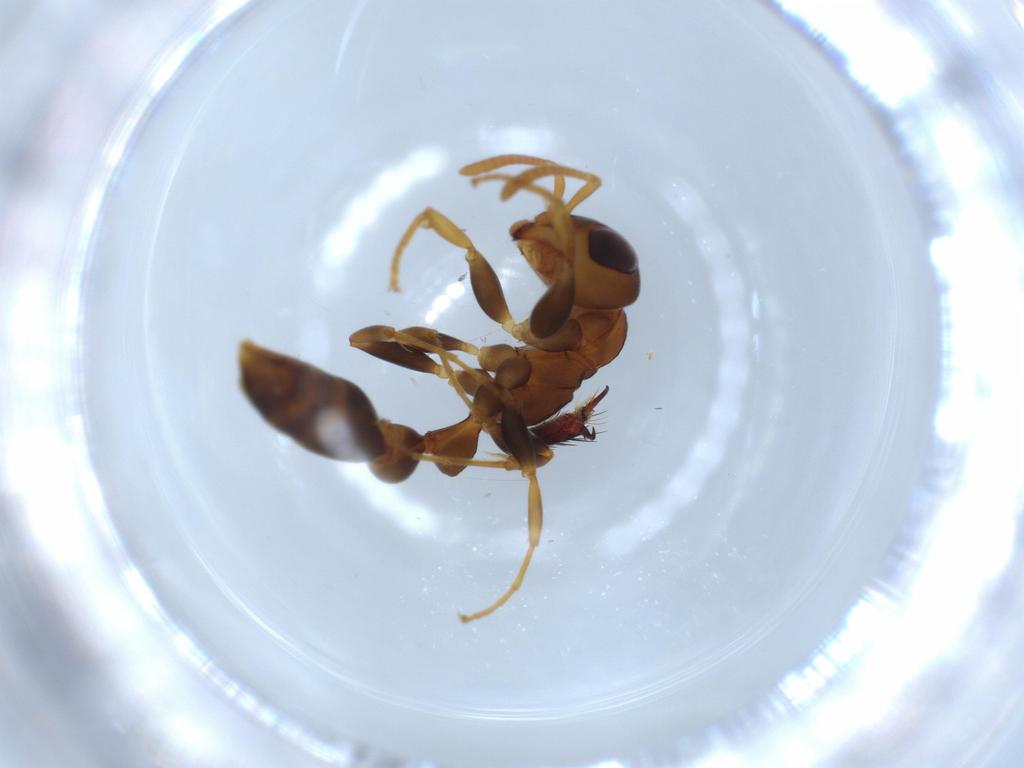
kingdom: Animalia
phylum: Arthropoda
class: Insecta
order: Hymenoptera
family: Formicidae
